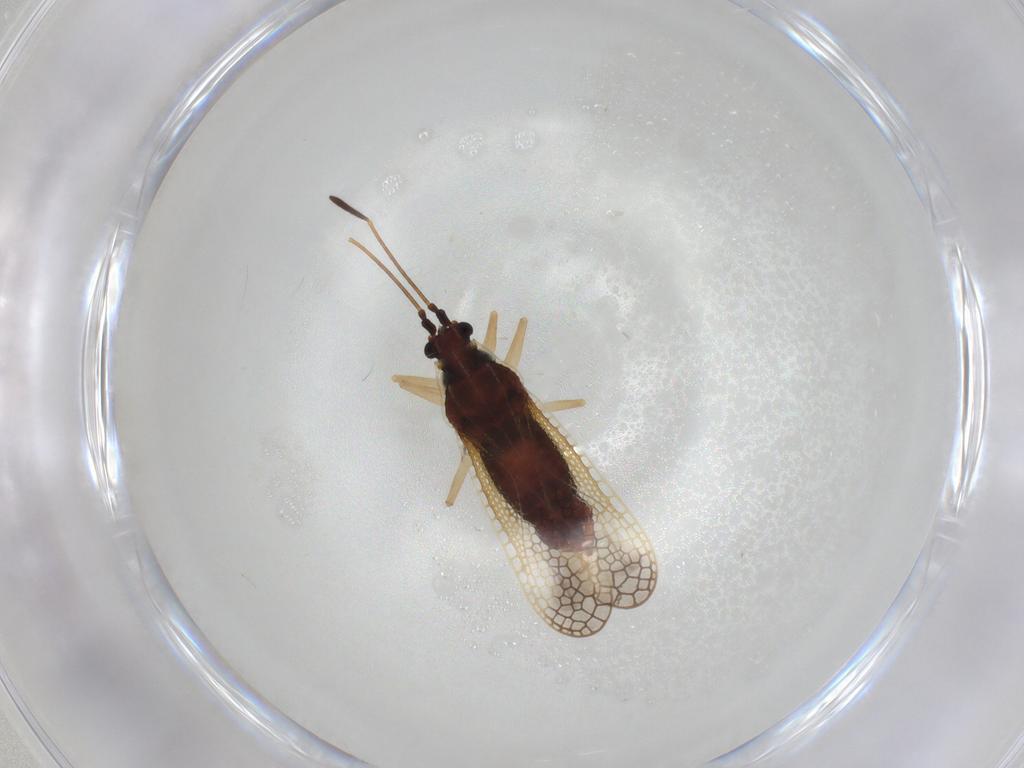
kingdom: Animalia
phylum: Arthropoda
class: Insecta
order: Hemiptera
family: Tingidae
